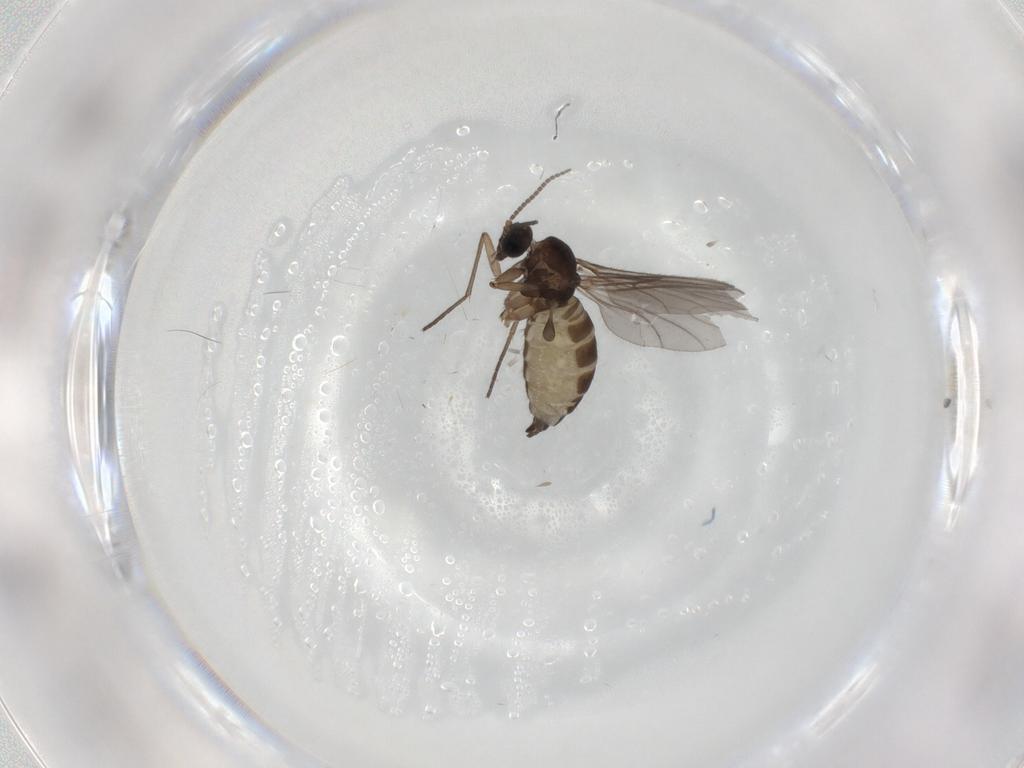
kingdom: Animalia
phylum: Arthropoda
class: Insecta
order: Diptera
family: Sciaridae
